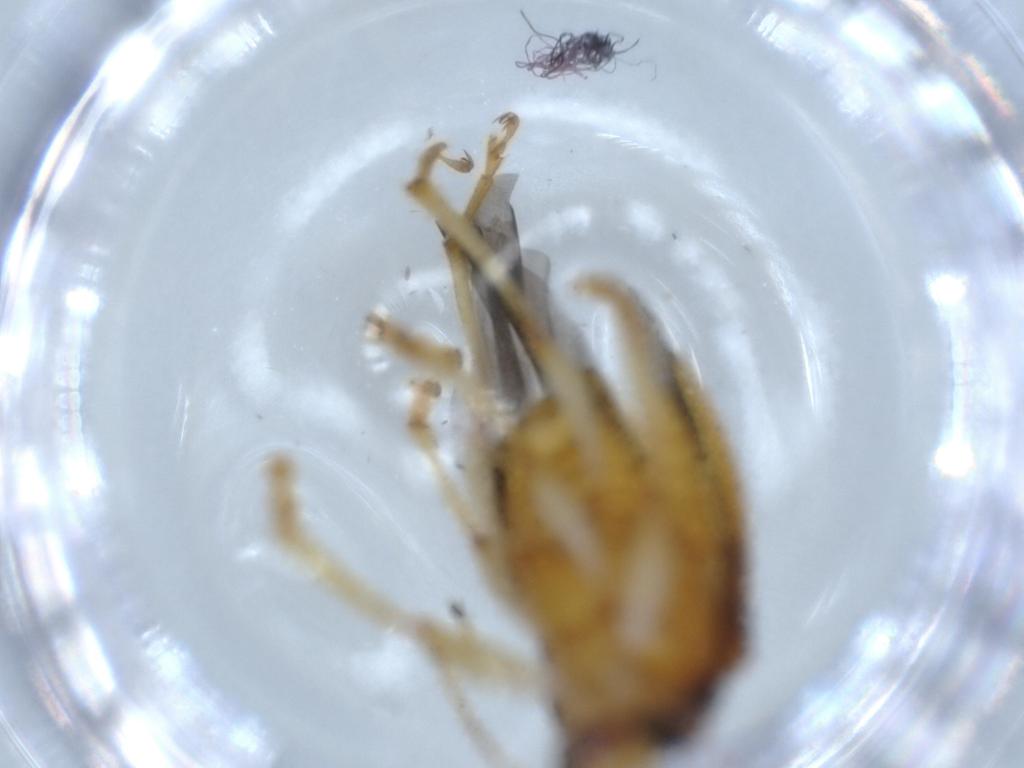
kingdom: Animalia
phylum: Arthropoda
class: Insecta
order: Coleoptera
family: Chrysomelidae
